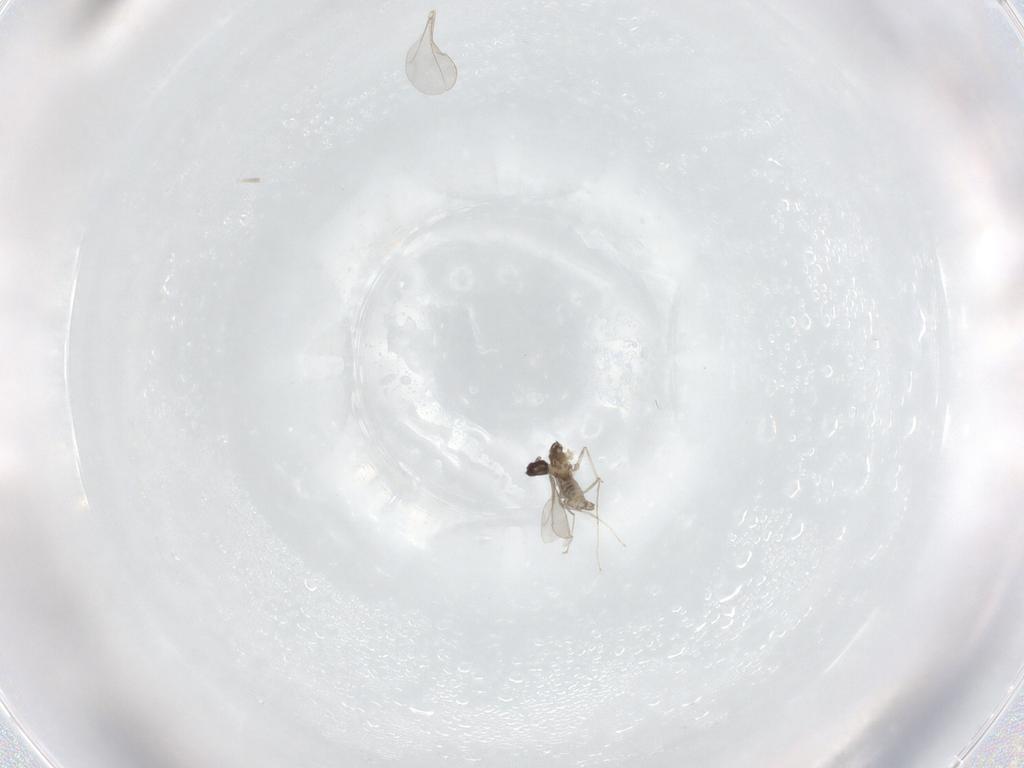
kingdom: Animalia
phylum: Arthropoda
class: Insecta
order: Diptera
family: Cecidomyiidae
